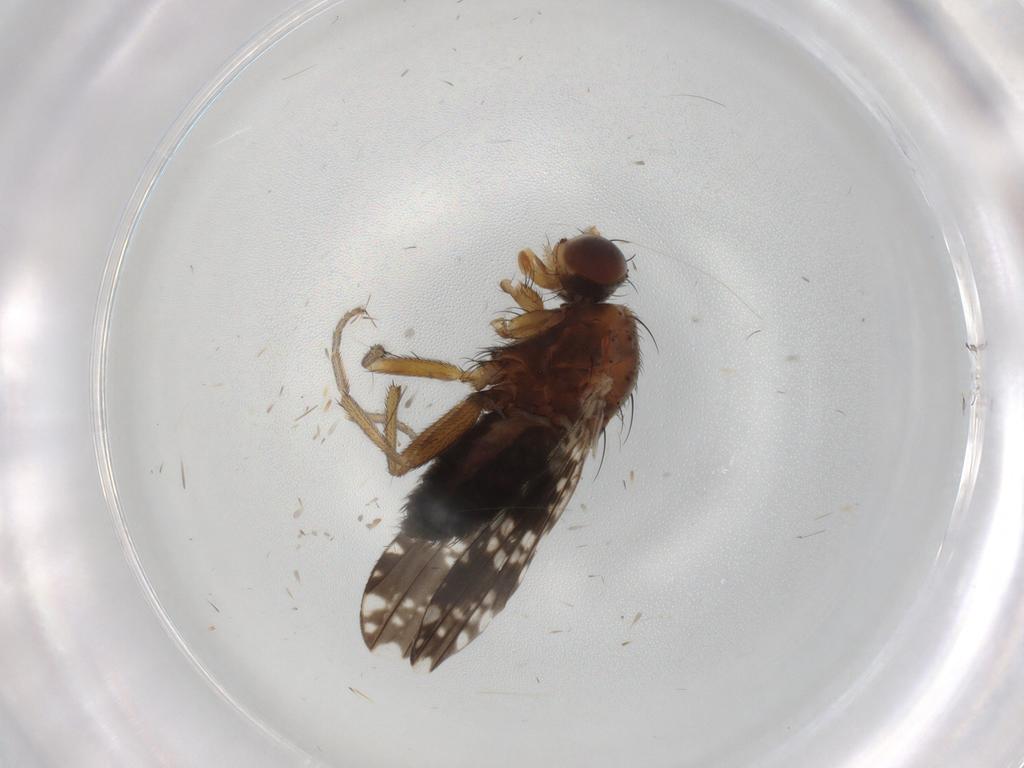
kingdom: Animalia
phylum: Arthropoda
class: Insecta
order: Diptera
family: Heleomyzidae
